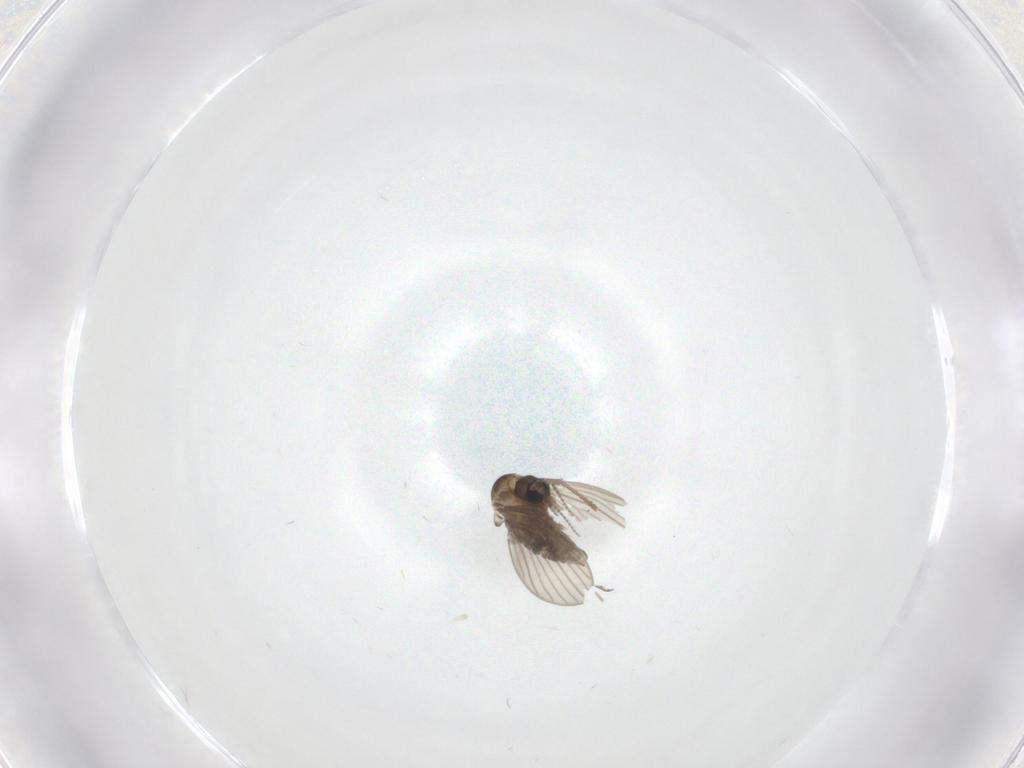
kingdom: Animalia
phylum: Arthropoda
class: Insecta
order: Diptera
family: Psychodidae
